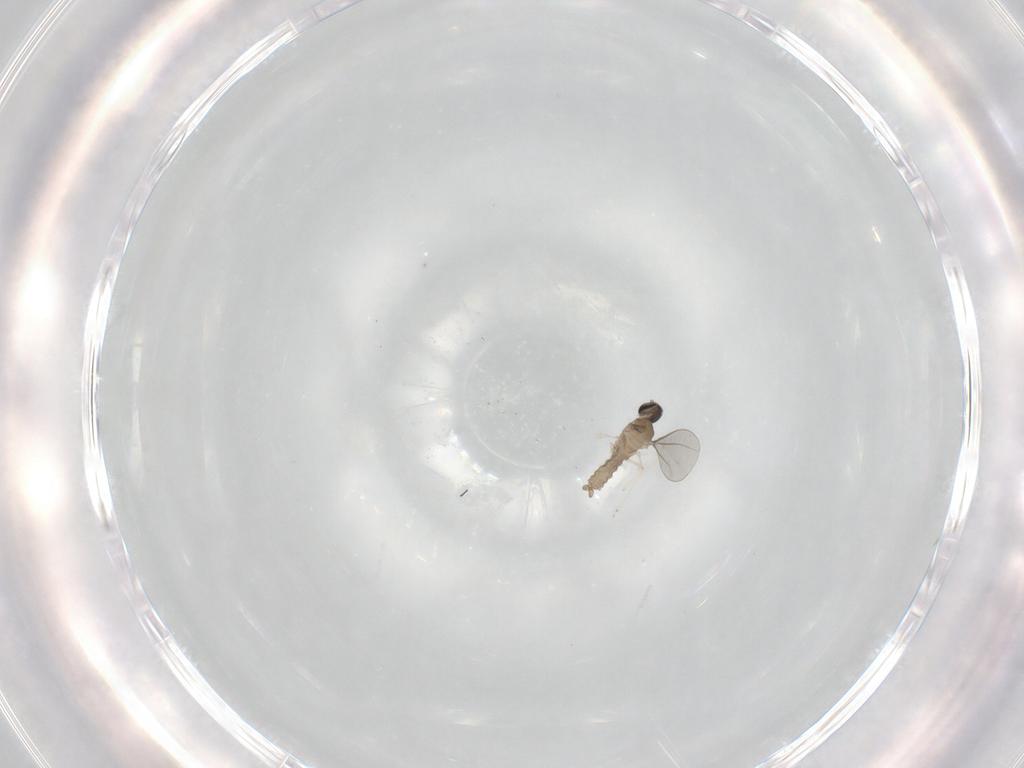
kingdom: Animalia
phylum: Arthropoda
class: Insecta
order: Diptera
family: Cecidomyiidae
